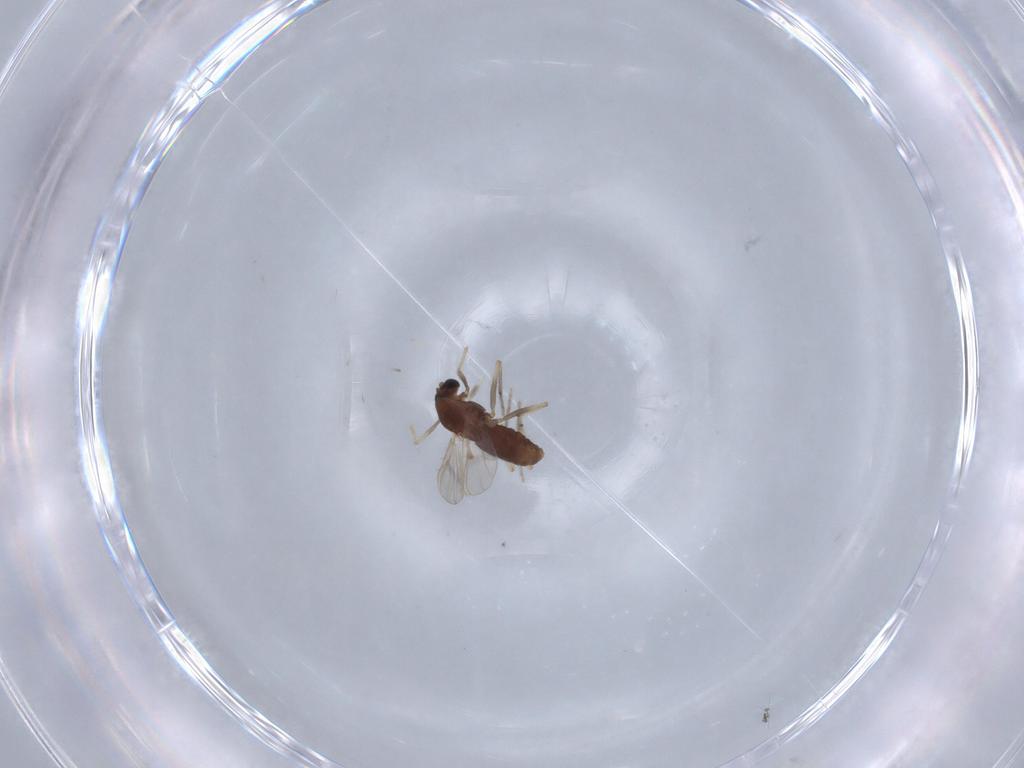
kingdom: Animalia
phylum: Arthropoda
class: Insecta
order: Diptera
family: Chironomidae
